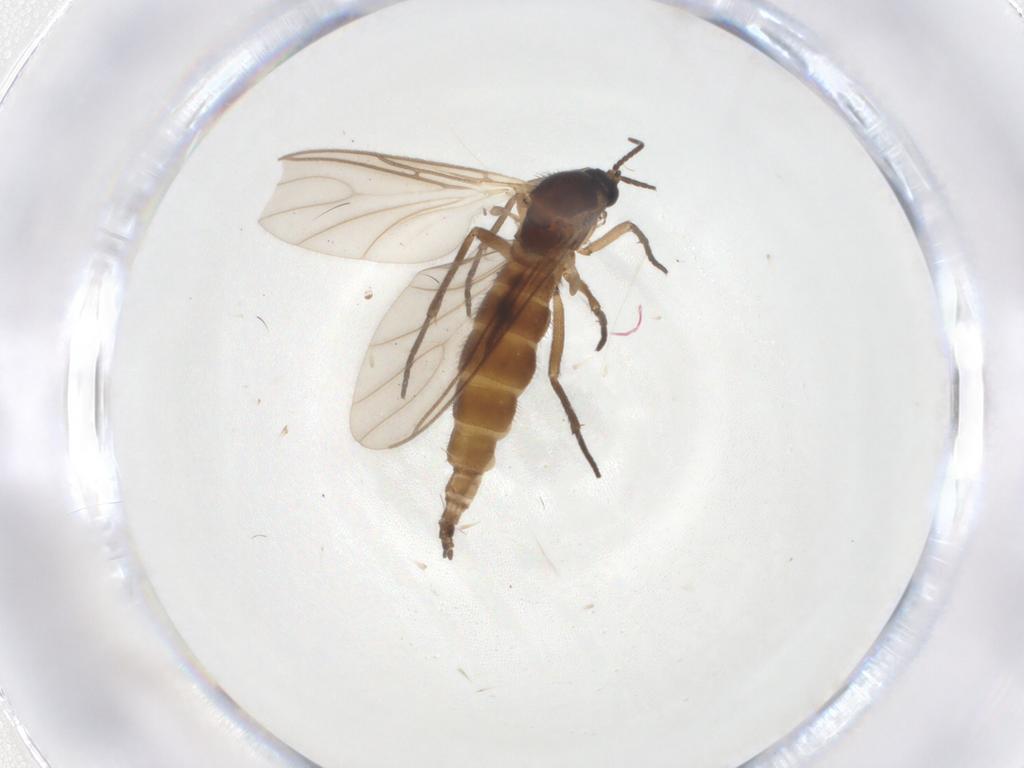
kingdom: Animalia
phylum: Arthropoda
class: Insecta
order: Diptera
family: Sciaridae
